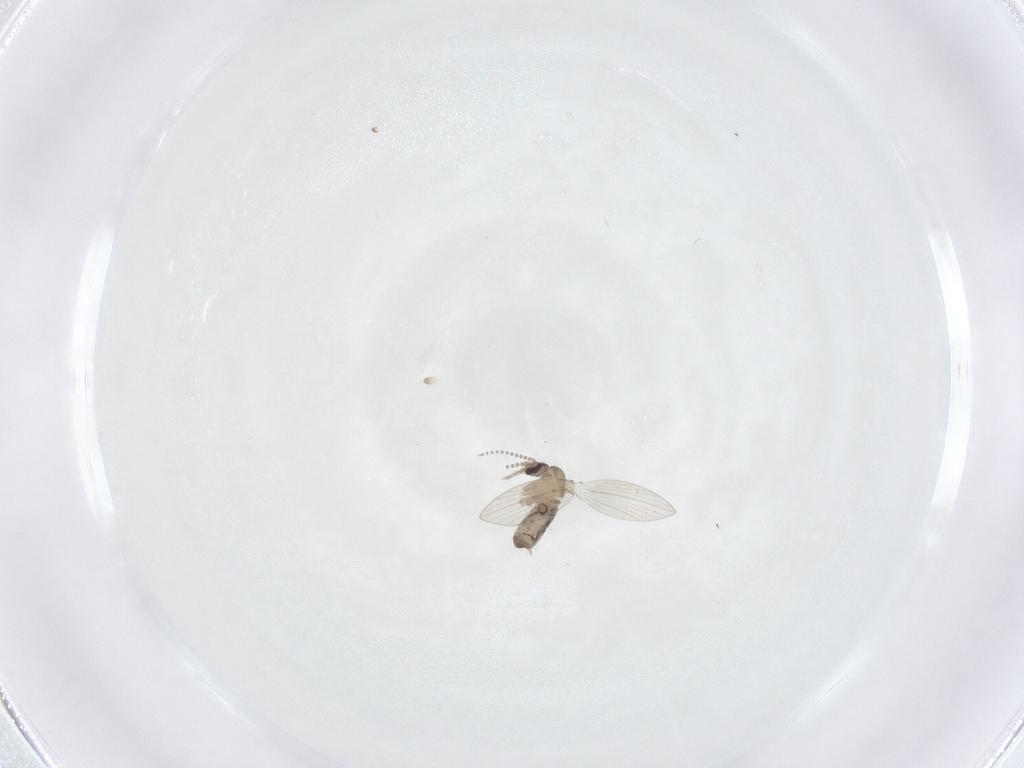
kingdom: Animalia
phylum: Arthropoda
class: Insecta
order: Diptera
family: Psychodidae
